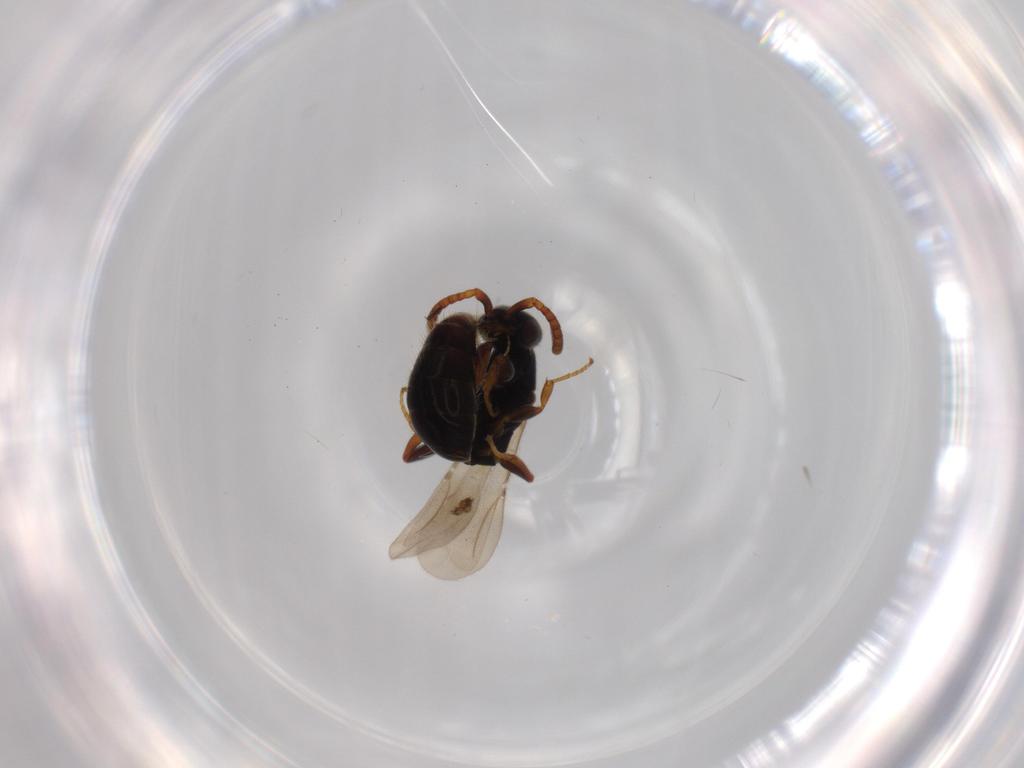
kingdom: Animalia
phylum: Arthropoda
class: Insecta
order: Hymenoptera
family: Bethylidae
